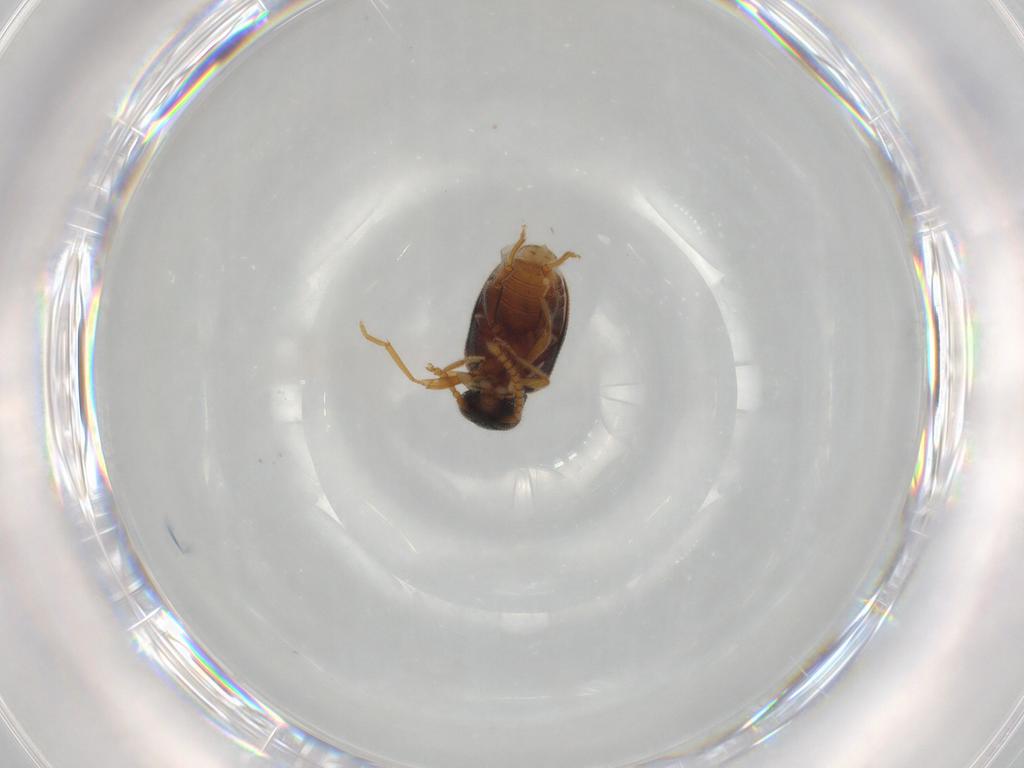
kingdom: Animalia
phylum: Arthropoda
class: Insecta
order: Coleoptera
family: Aderidae
